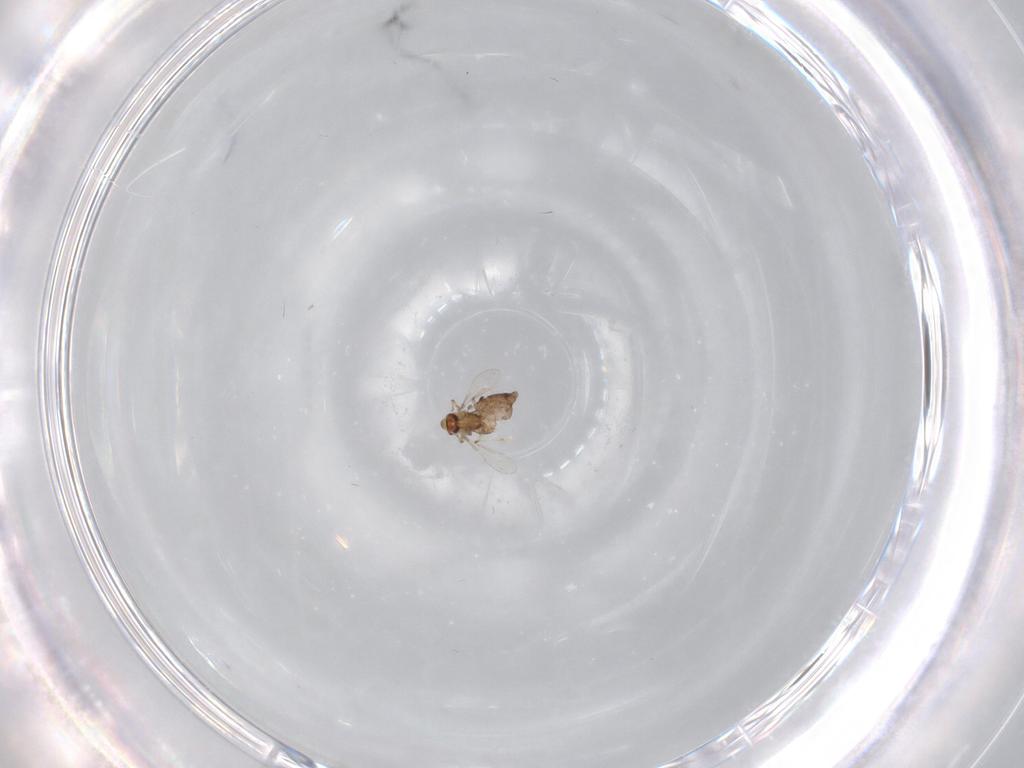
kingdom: Animalia
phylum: Arthropoda
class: Insecta
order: Diptera
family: Chironomidae
